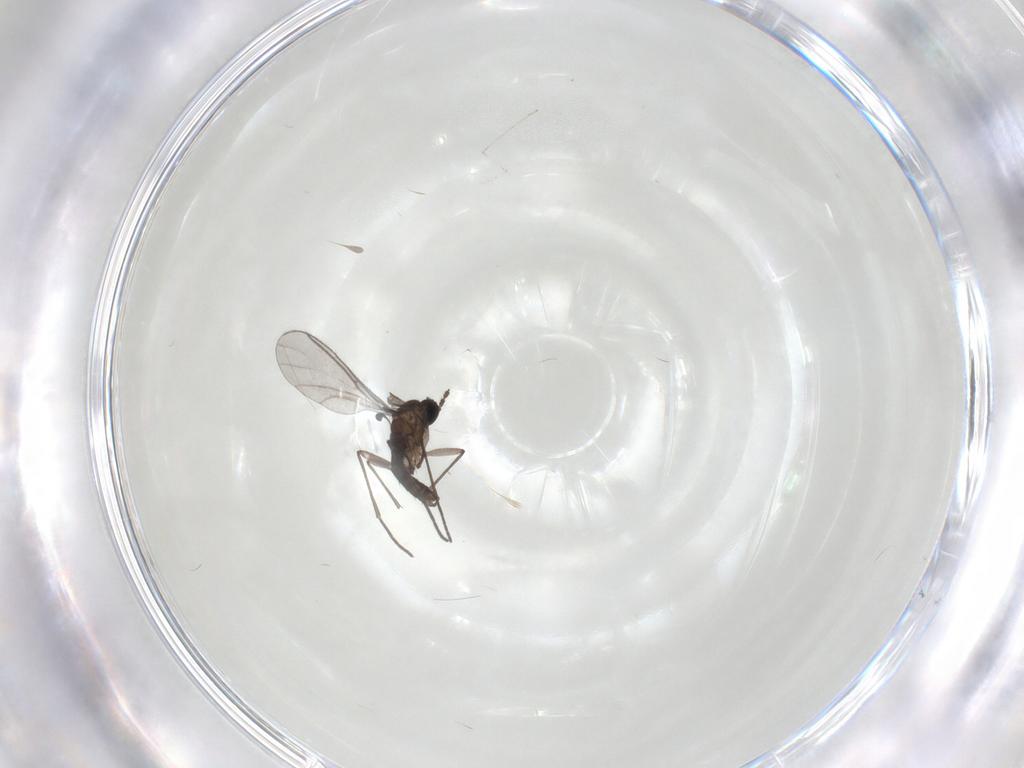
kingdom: Animalia
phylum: Arthropoda
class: Insecta
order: Diptera
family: Cecidomyiidae
